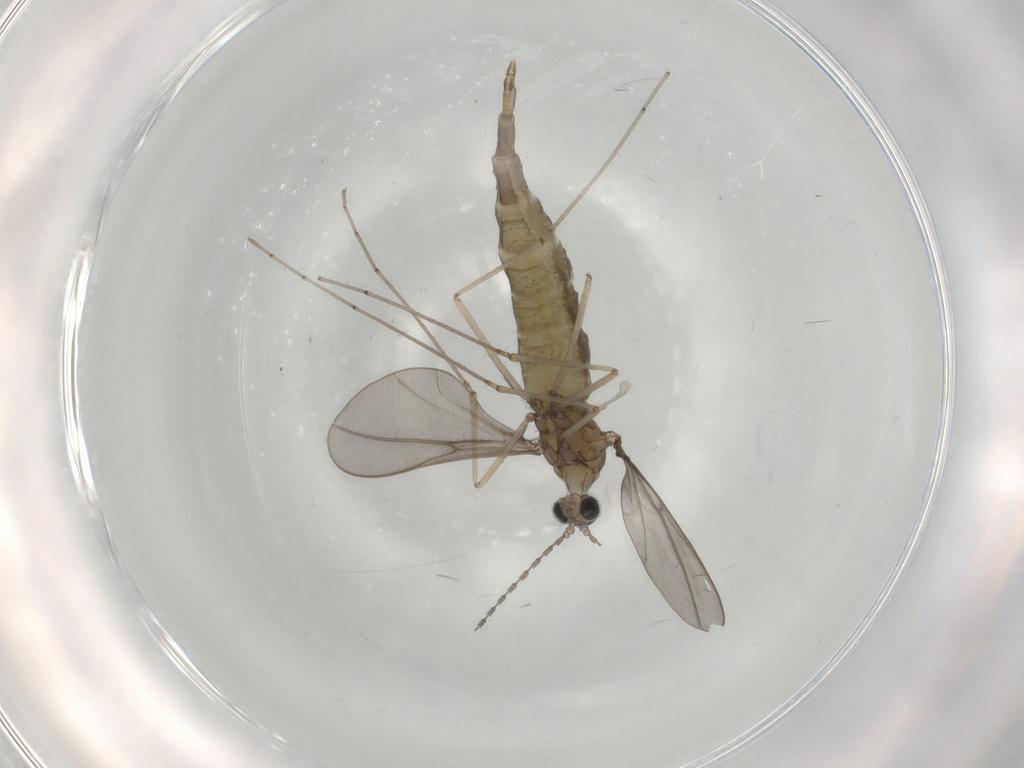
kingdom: Animalia
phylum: Arthropoda
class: Insecta
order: Diptera
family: Cecidomyiidae
